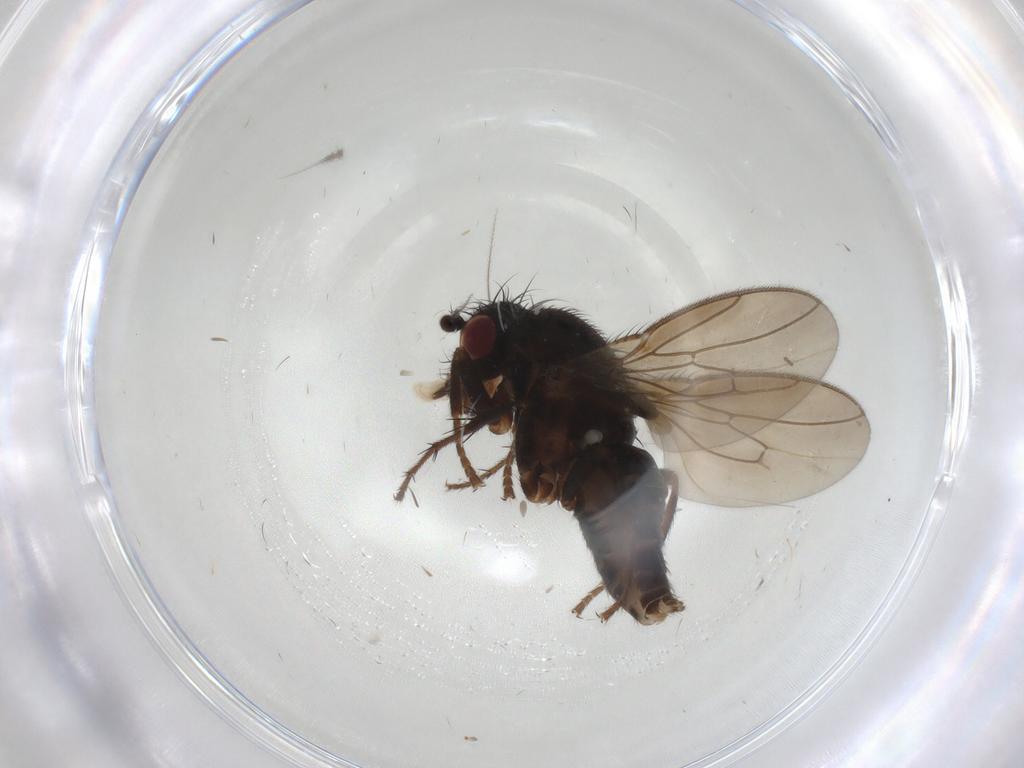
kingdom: Animalia
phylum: Arthropoda
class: Insecta
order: Diptera
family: Sphaeroceridae
